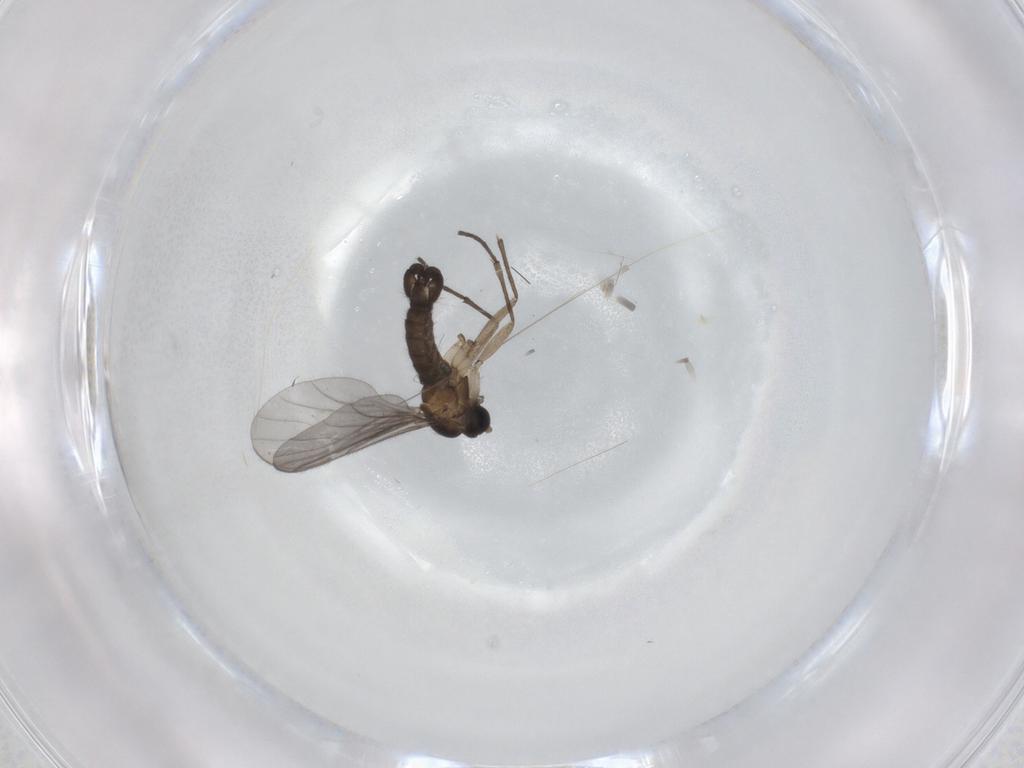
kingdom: Animalia
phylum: Arthropoda
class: Insecta
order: Diptera
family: Sciaridae
